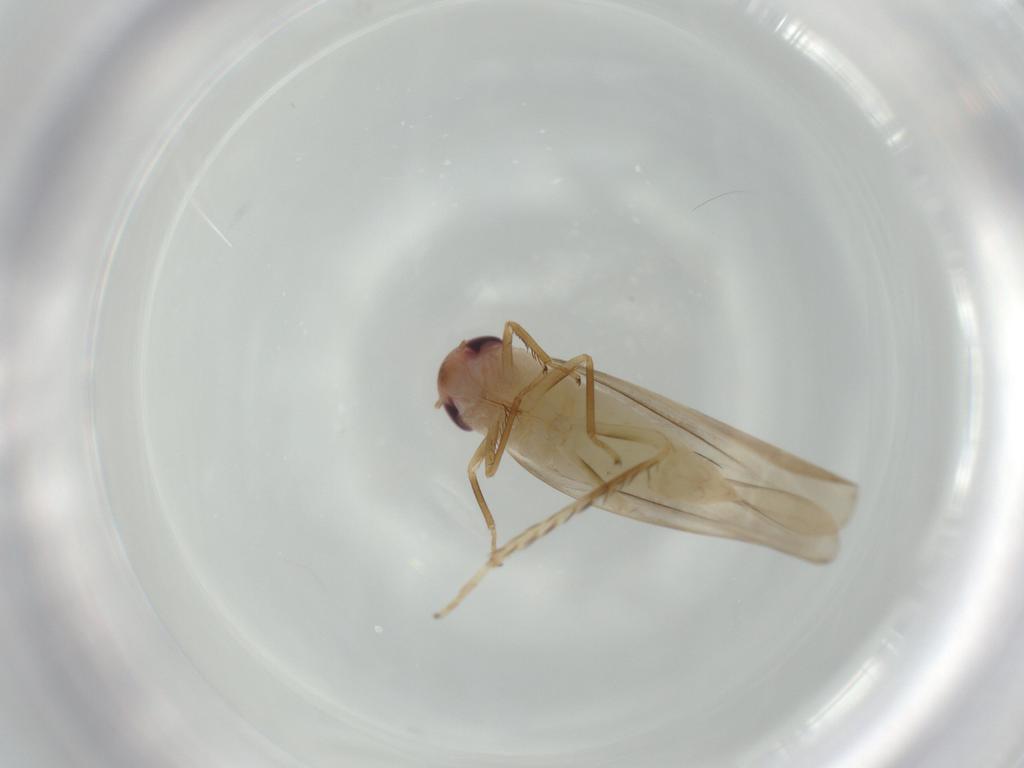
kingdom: Animalia
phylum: Arthropoda
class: Insecta
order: Hemiptera
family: Cicadellidae
